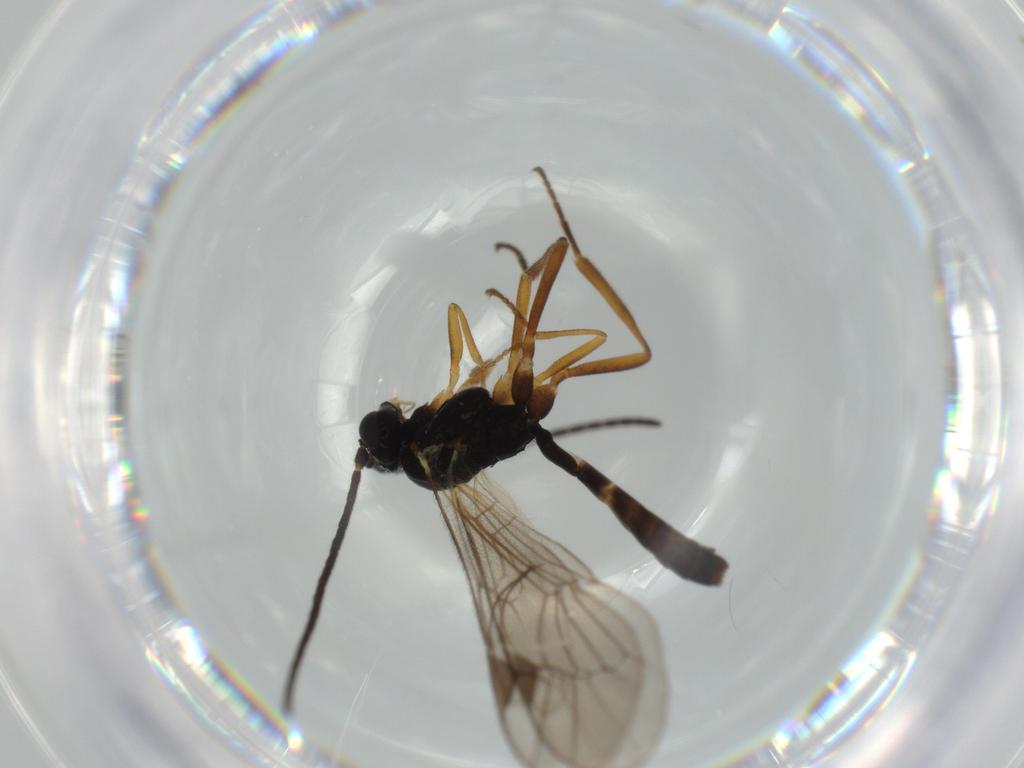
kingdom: Animalia
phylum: Arthropoda
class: Insecta
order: Hymenoptera
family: Ichneumonidae
